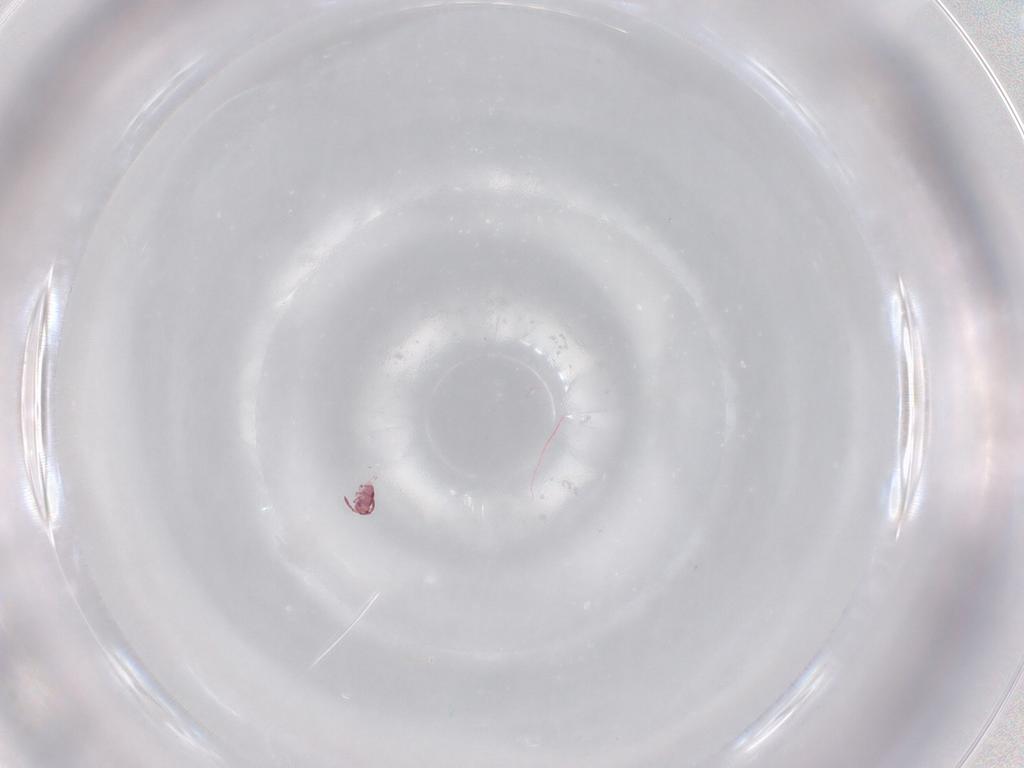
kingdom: Animalia
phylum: Arthropoda
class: Collembola
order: Symphypleona
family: Sminthurididae
